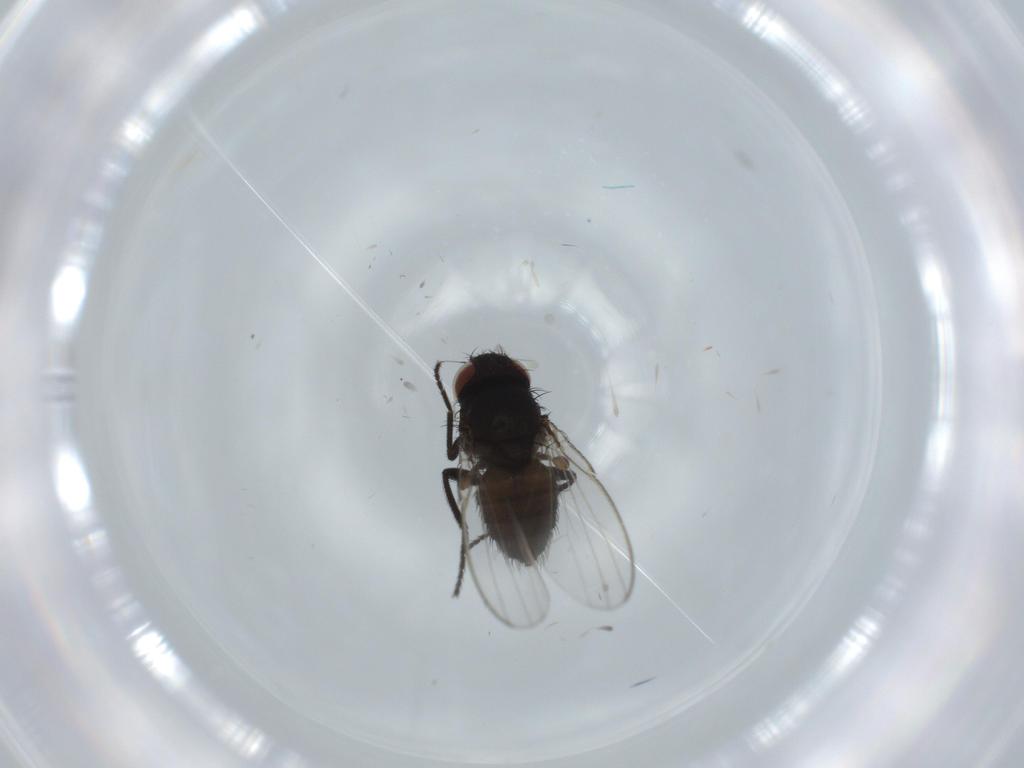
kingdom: Animalia
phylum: Arthropoda
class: Insecta
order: Diptera
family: Milichiidae
